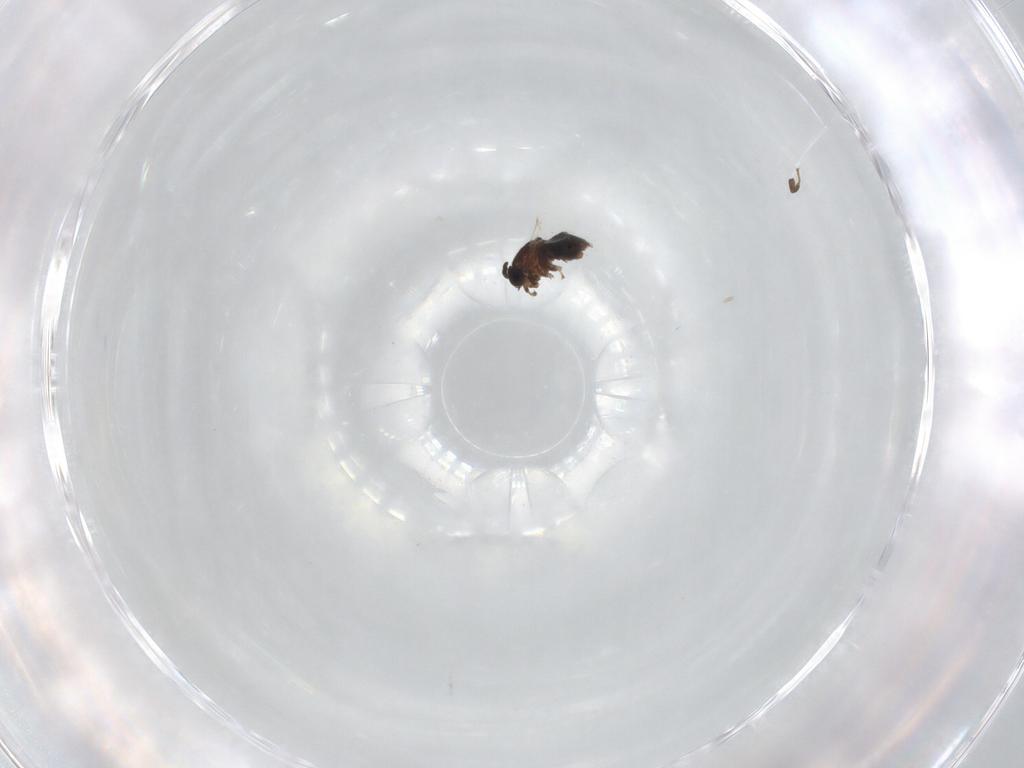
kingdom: Animalia
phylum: Arthropoda
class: Insecta
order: Diptera
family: Scatopsidae
